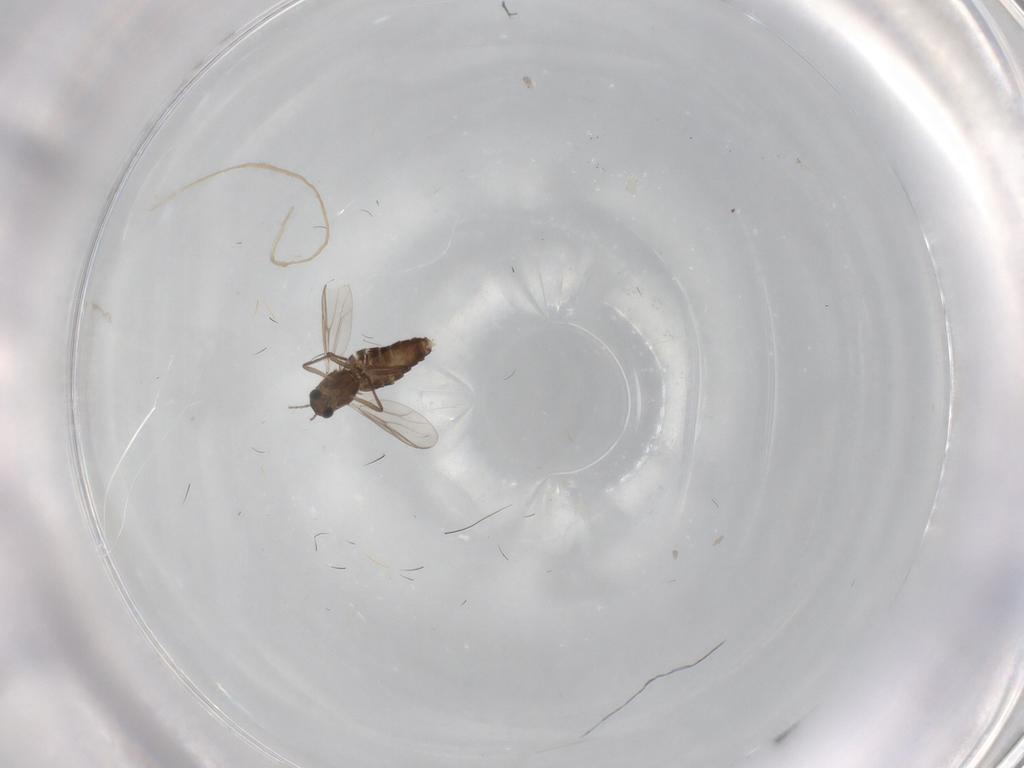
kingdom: Animalia
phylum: Arthropoda
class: Insecta
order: Diptera
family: Chironomidae
